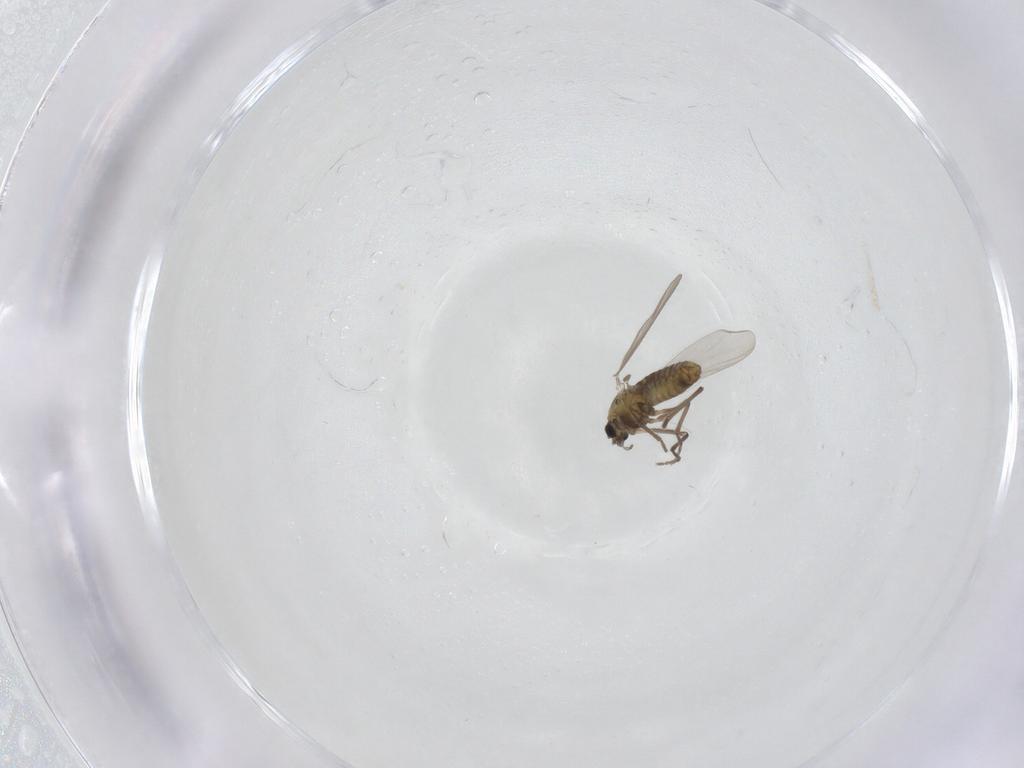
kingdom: Animalia
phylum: Arthropoda
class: Insecta
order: Diptera
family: Chironomidae
